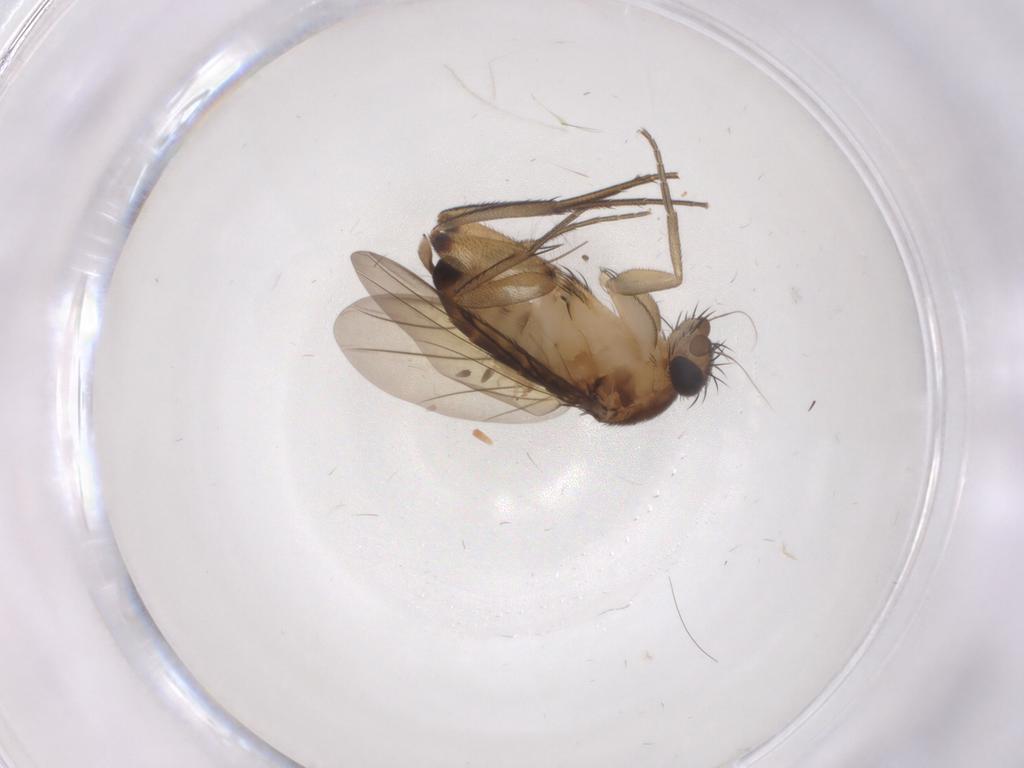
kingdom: Animalia
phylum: Arthropoda
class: Insecta
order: Diptera
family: Phoridae
